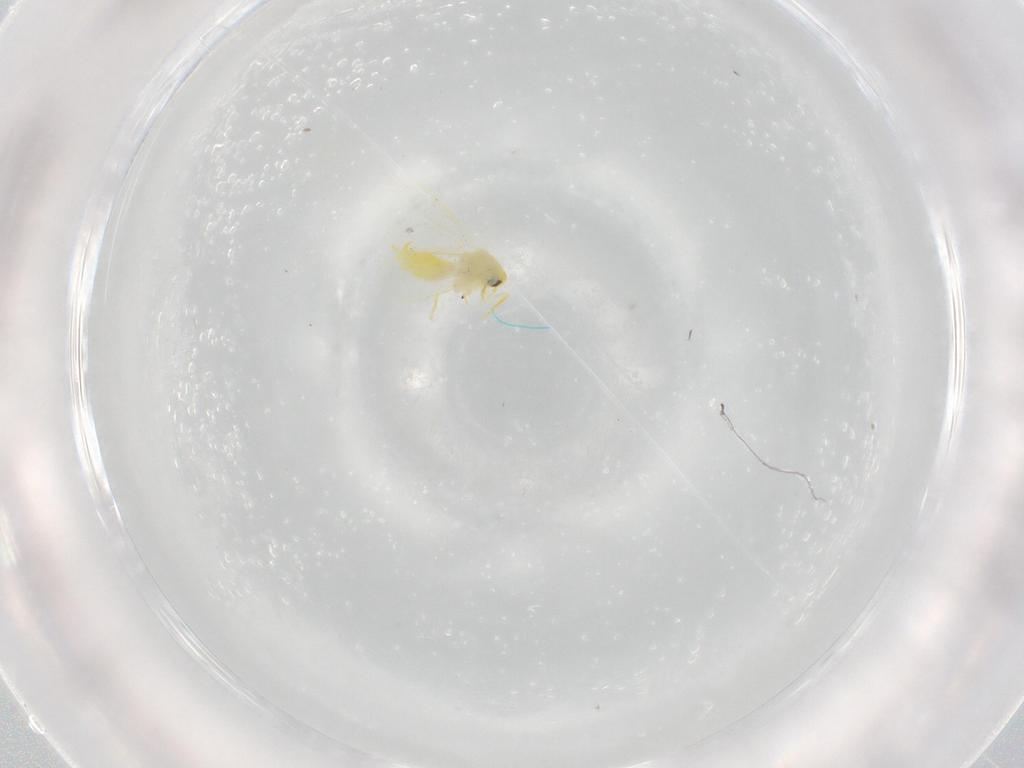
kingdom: Animalia
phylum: Arthropoda
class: Insecta
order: Hemiptera
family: Aleyrodidae
